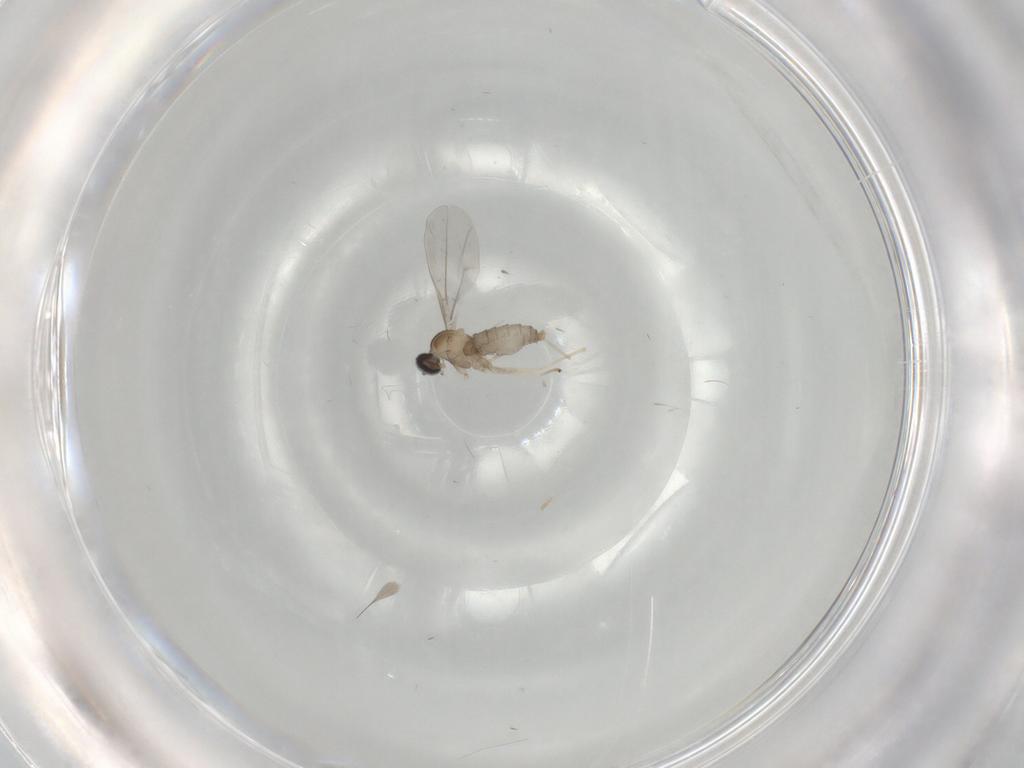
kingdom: Animalia
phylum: Arthropoda
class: Insecta
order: Diptera
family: Cecidomyiidae
